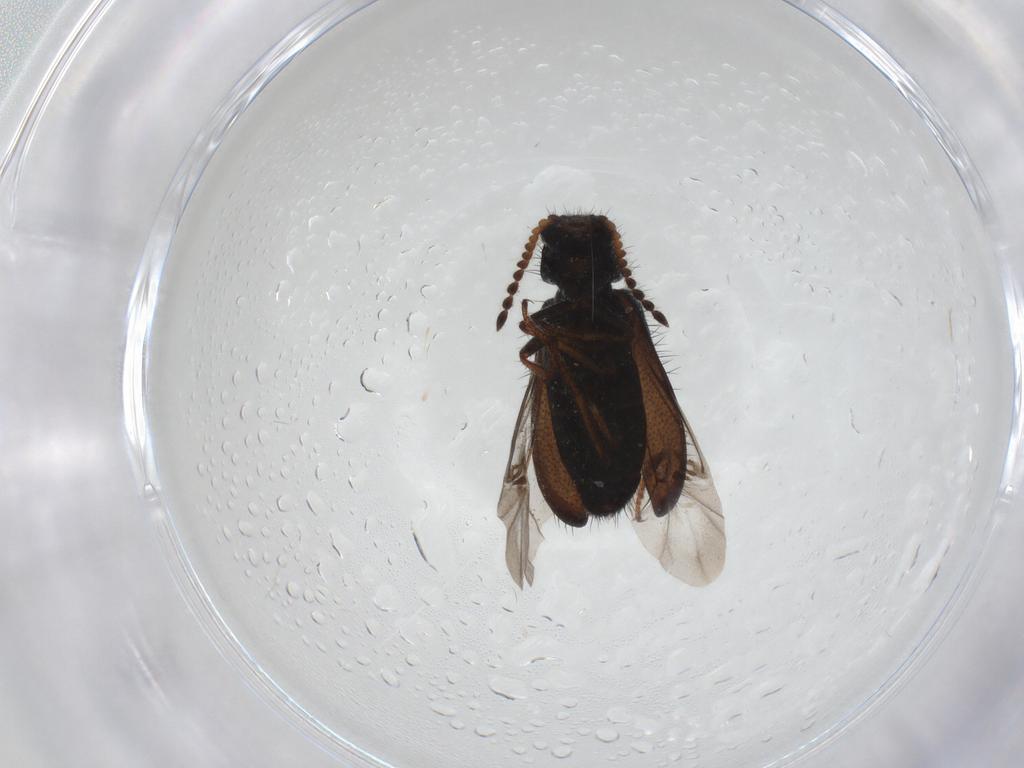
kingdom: Animalia
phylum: Arthropoda
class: Insecta
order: Coleoptera
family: Melyridae
